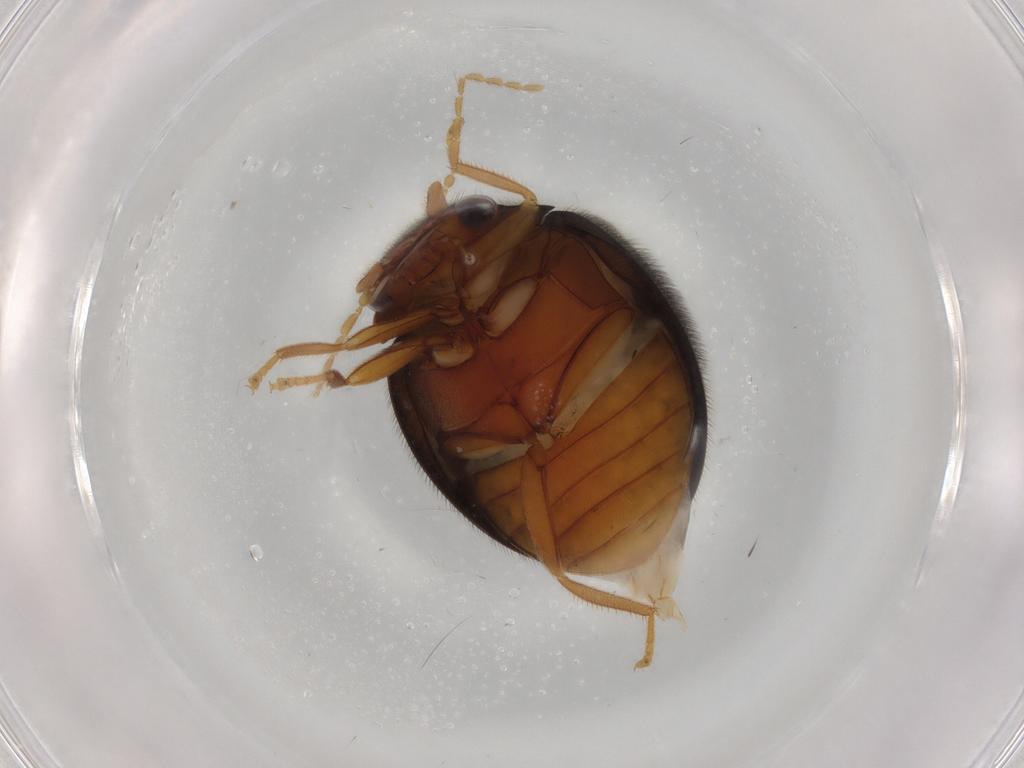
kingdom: Animalia
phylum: Arthropoda
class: Insecta
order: Coleoptera
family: Scirtidae
